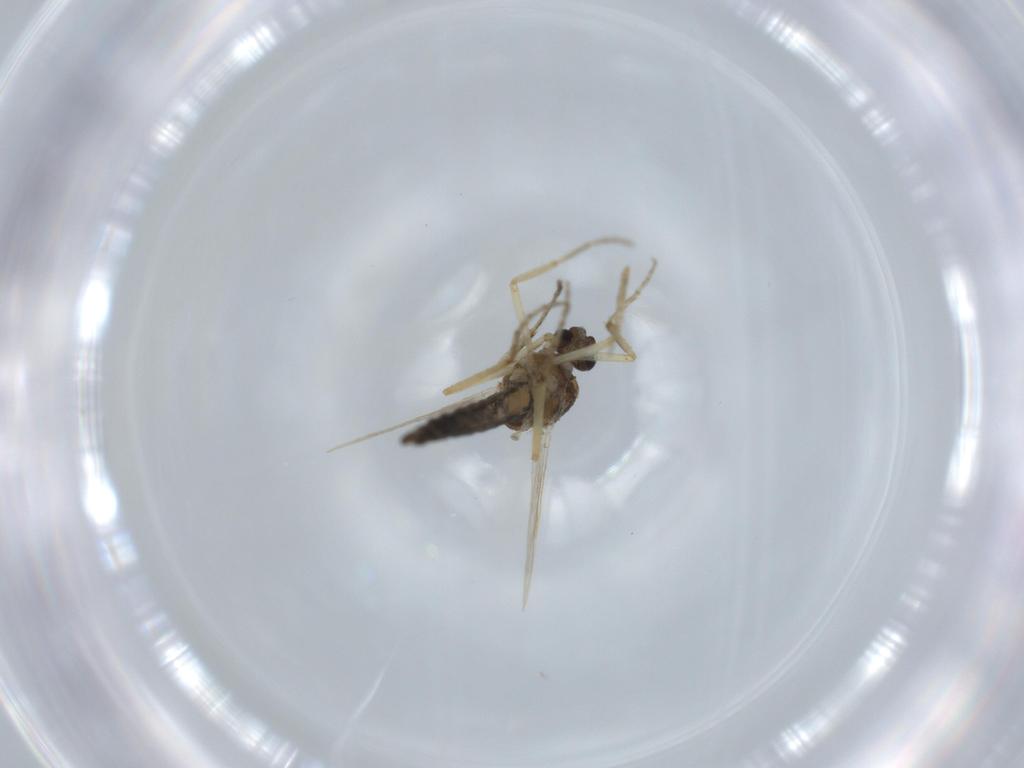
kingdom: Animalia
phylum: Arthropoda
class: Insecta
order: Diptera
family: Ceratopogonidae
